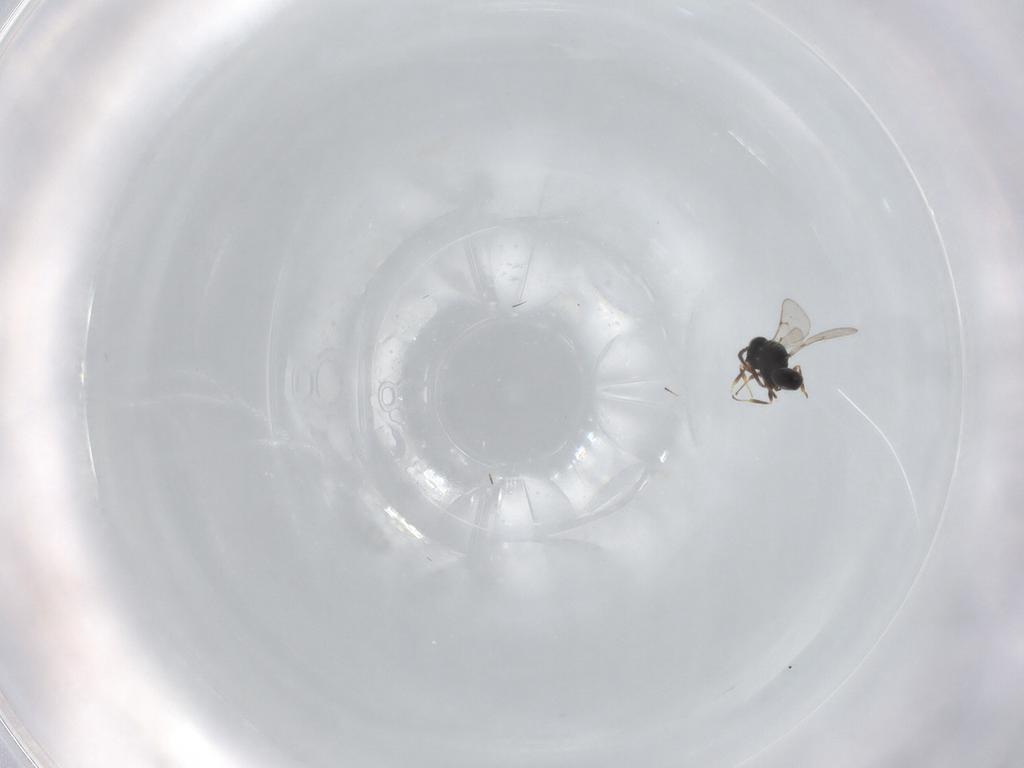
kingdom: Animalia
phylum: Arthropoda
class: Insecta
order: Hymenoptera
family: Scelionidae
